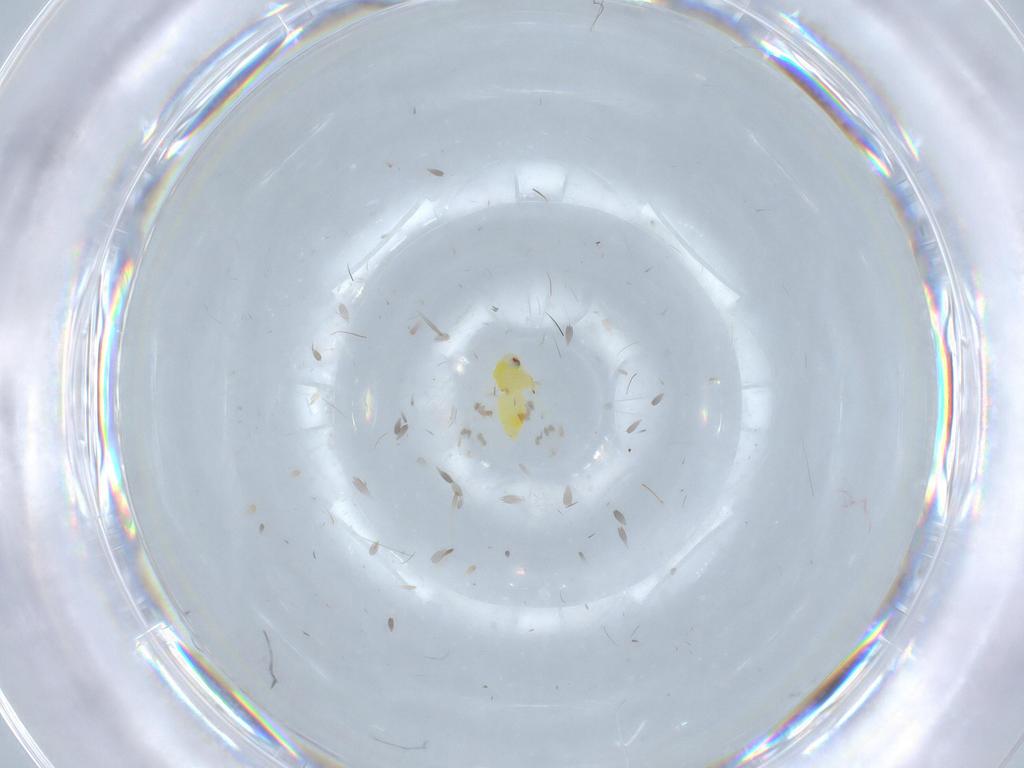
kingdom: Animalia
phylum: Arthropoda
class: Insecta
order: Hemiptera
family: Aleyrodidae
